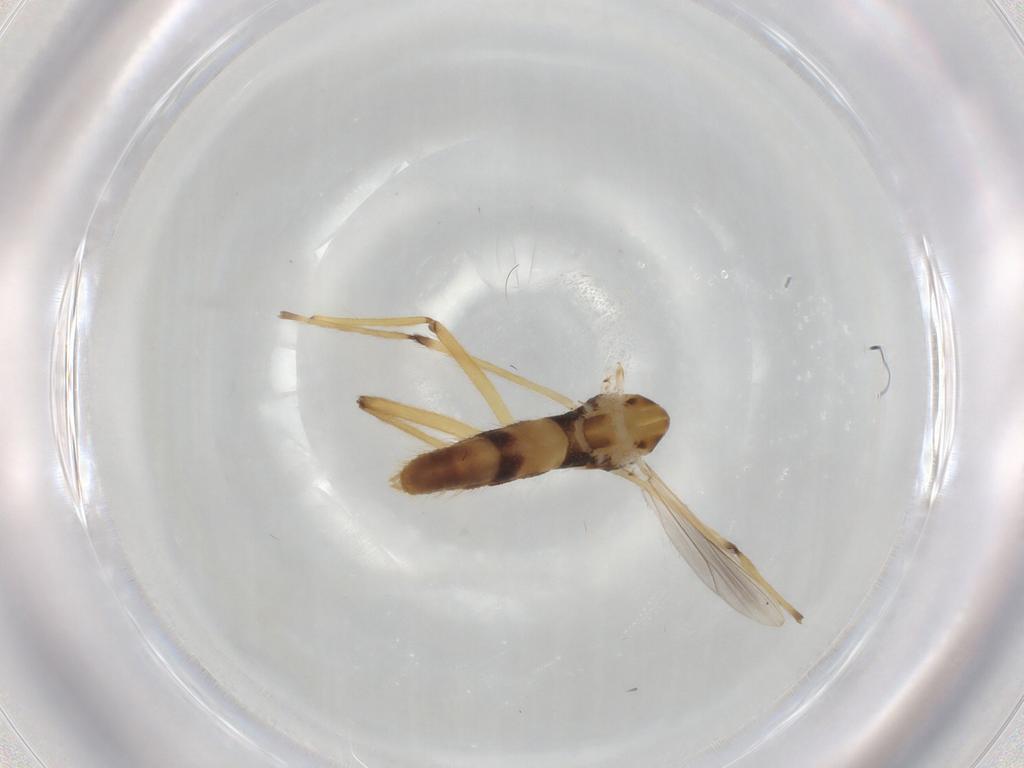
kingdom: Animalia
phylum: Arthropoda
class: Insecta
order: Diptera
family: Chironomidae
